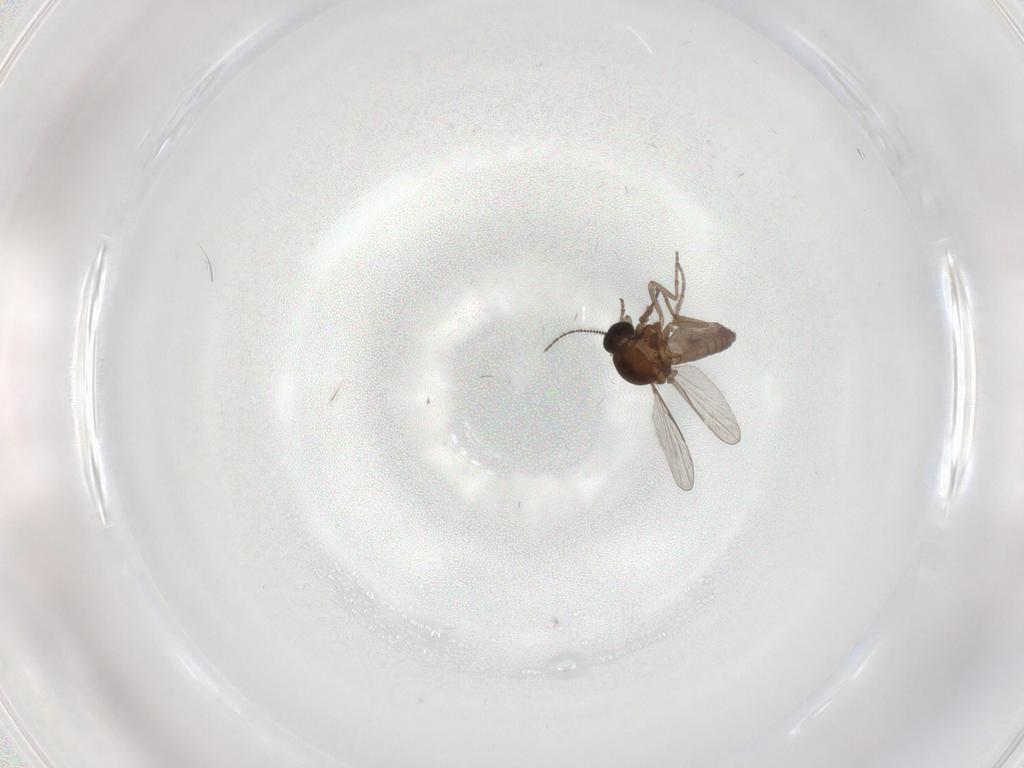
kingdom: Animalia
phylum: Arthropoda
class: Insecta
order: Diptera
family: Ceratopogonidae
